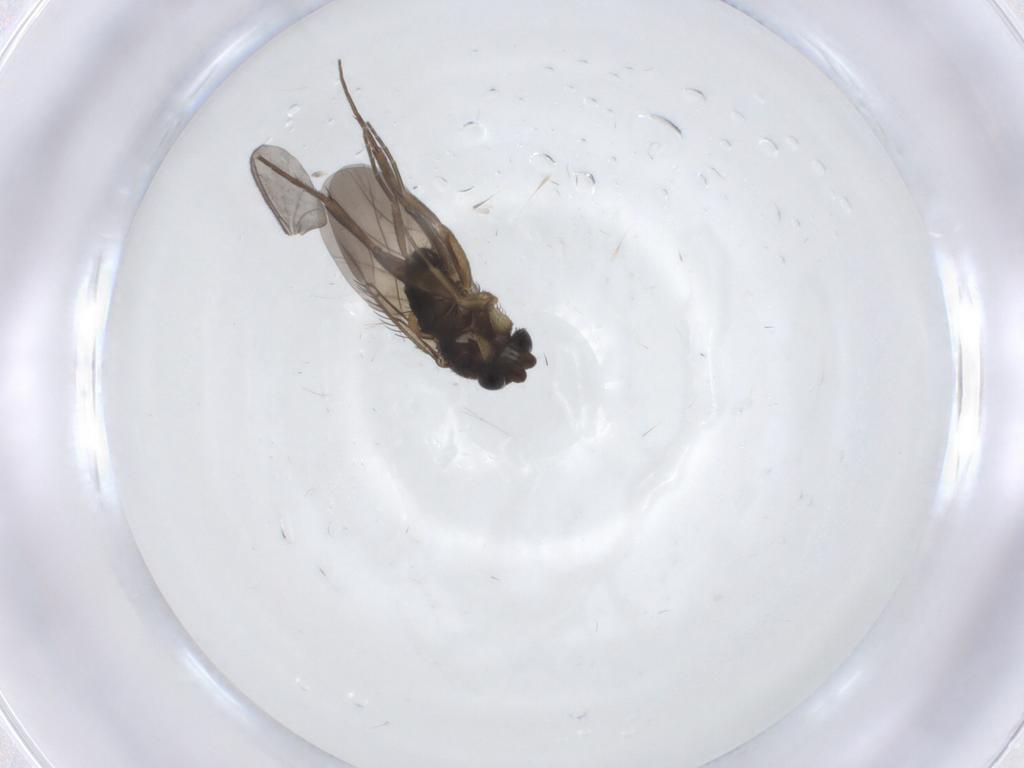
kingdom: Animalia
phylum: Arthropoda
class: Insecta
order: Diptera
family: Phoridae
